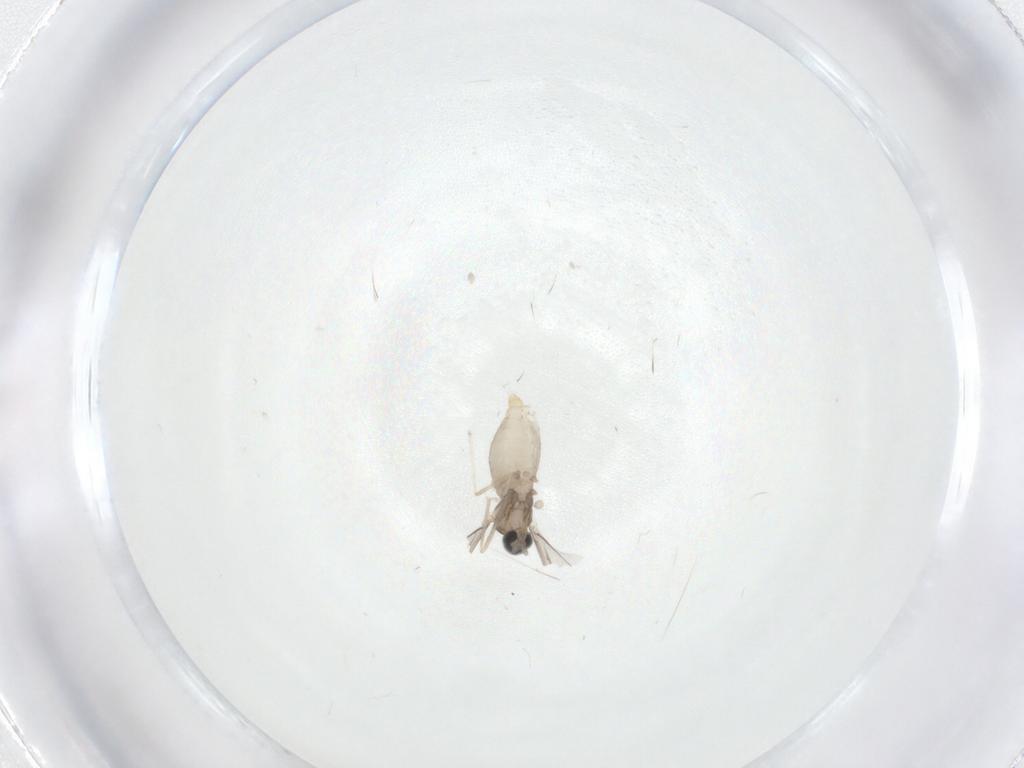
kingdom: Animalia
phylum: Arthropoda
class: Insecta
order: Diptera
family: Cecidomyiidae
